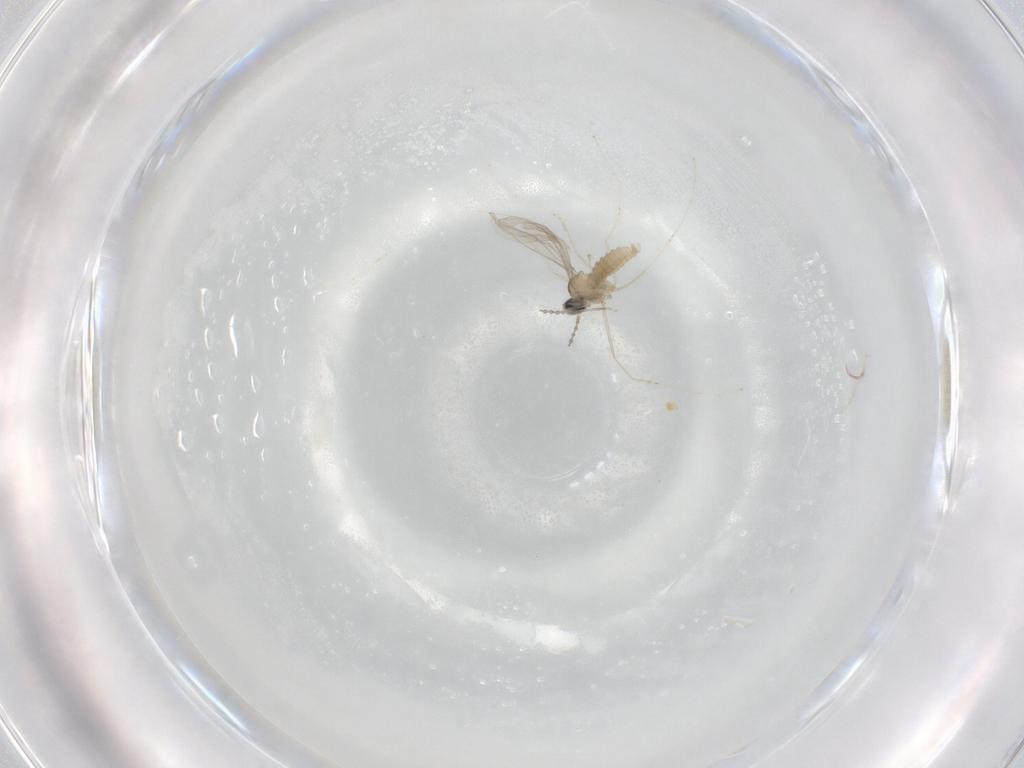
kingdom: Animalia
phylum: Arthropoda
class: Insecta
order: Diptera
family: Cecidomyiidae
